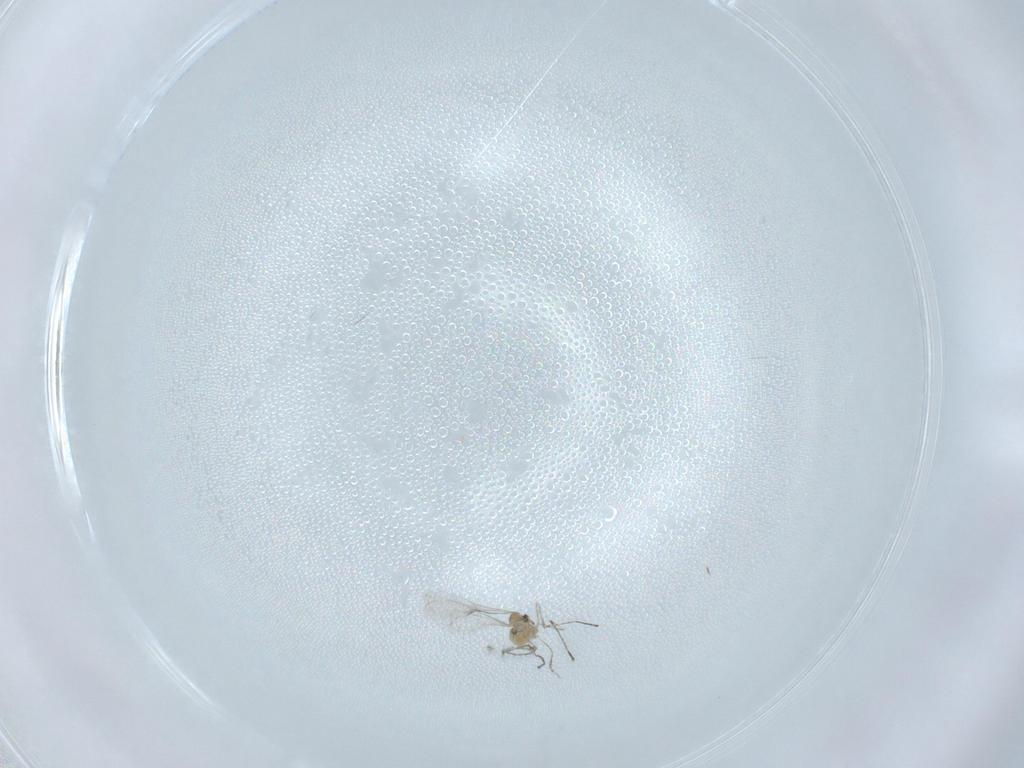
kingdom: Animalia
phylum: Arthropoda
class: Insecta
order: Diptera
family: Cecidomyiidae
